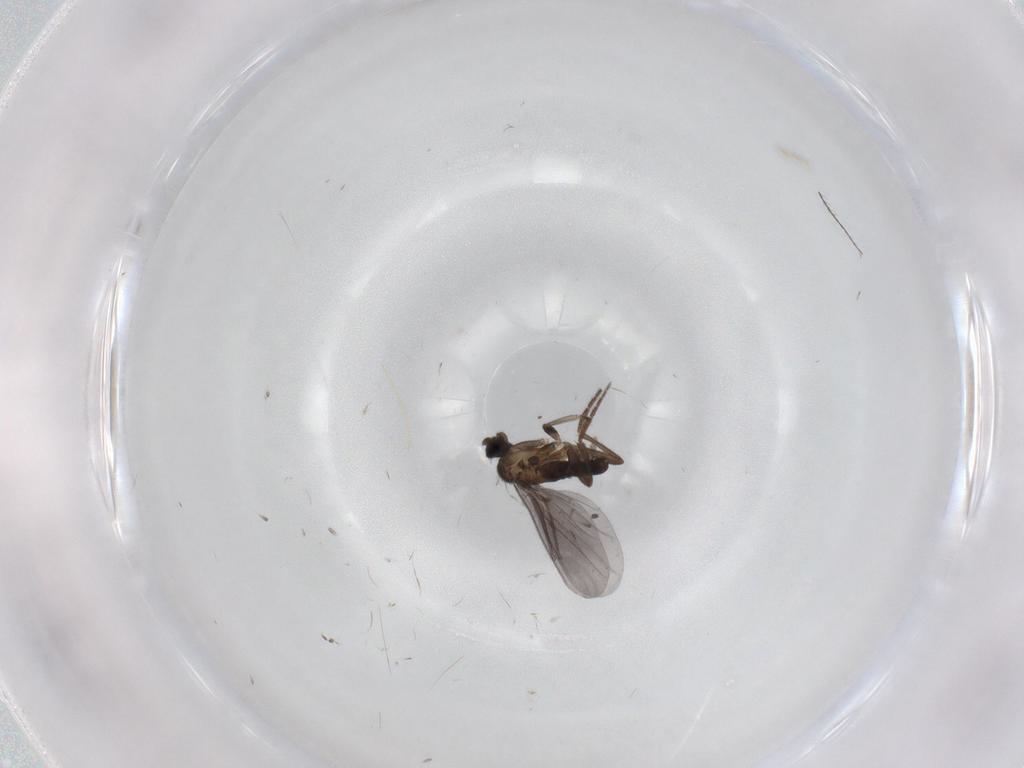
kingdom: Animalia
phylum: Arthropoda
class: Insecta
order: Diptera
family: Phoridae
